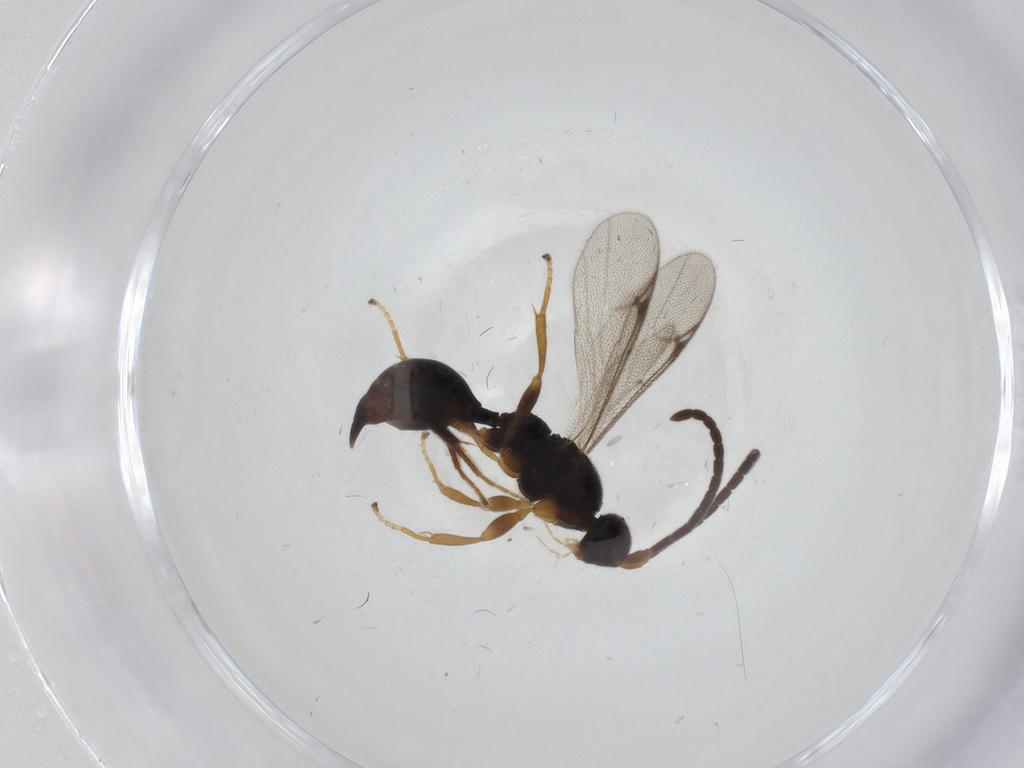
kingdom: Animalia
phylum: Arthropoda
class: Insecta
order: Hymenoptera
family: Proctotrupidae
